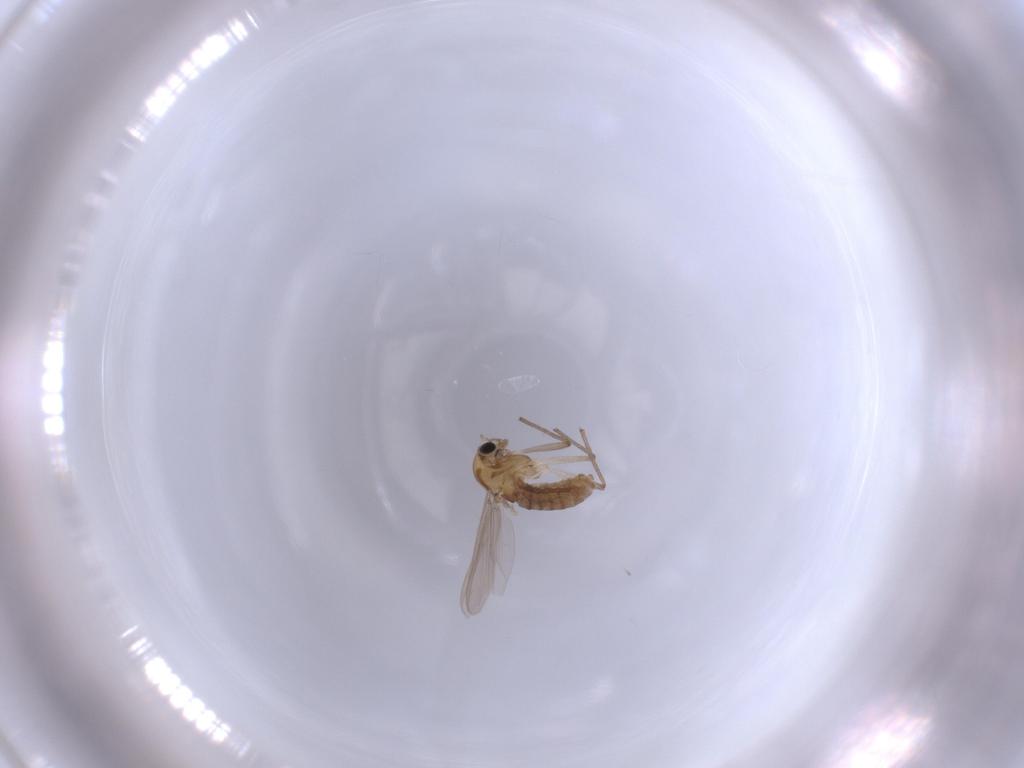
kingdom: Animalia
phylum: Arthropoda
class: Insecta
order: Diptera
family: Chironomidae
